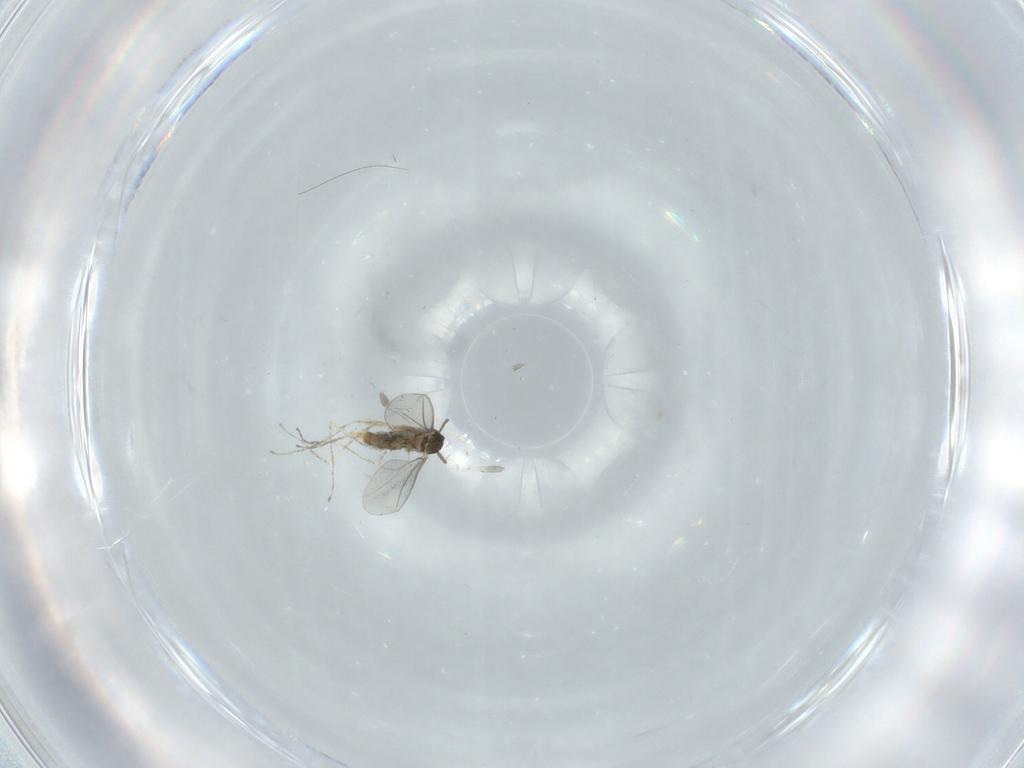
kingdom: Animalia
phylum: Arthropoda
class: Insecta
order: Diptera
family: Cecidomyiidae
